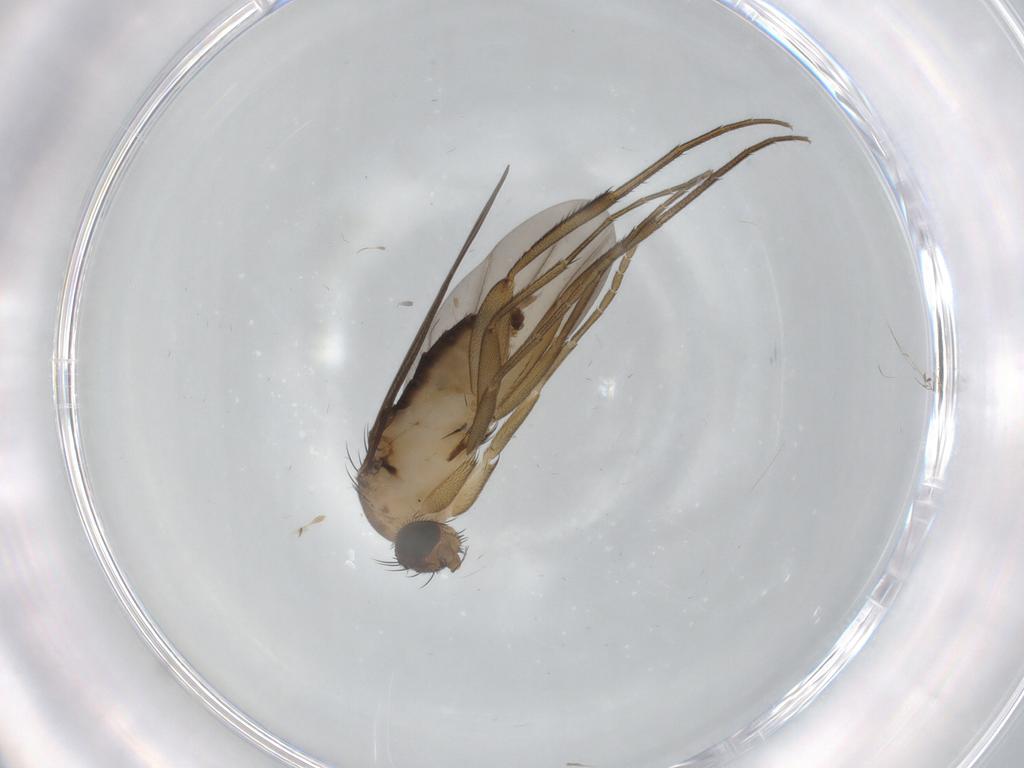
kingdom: Animalia
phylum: Arthropoda
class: Insecta
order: Diptera
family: Phoridae
